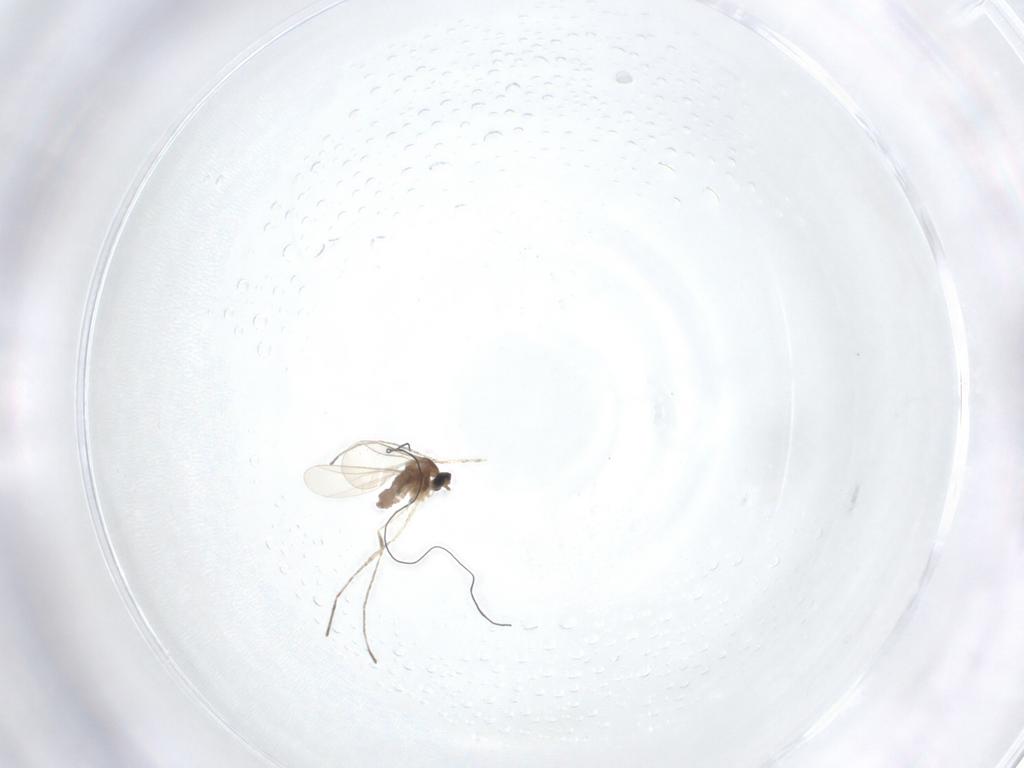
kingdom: Animalia
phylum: Arthropoda
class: Insecta
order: Diptera
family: Cecidomyiidae
